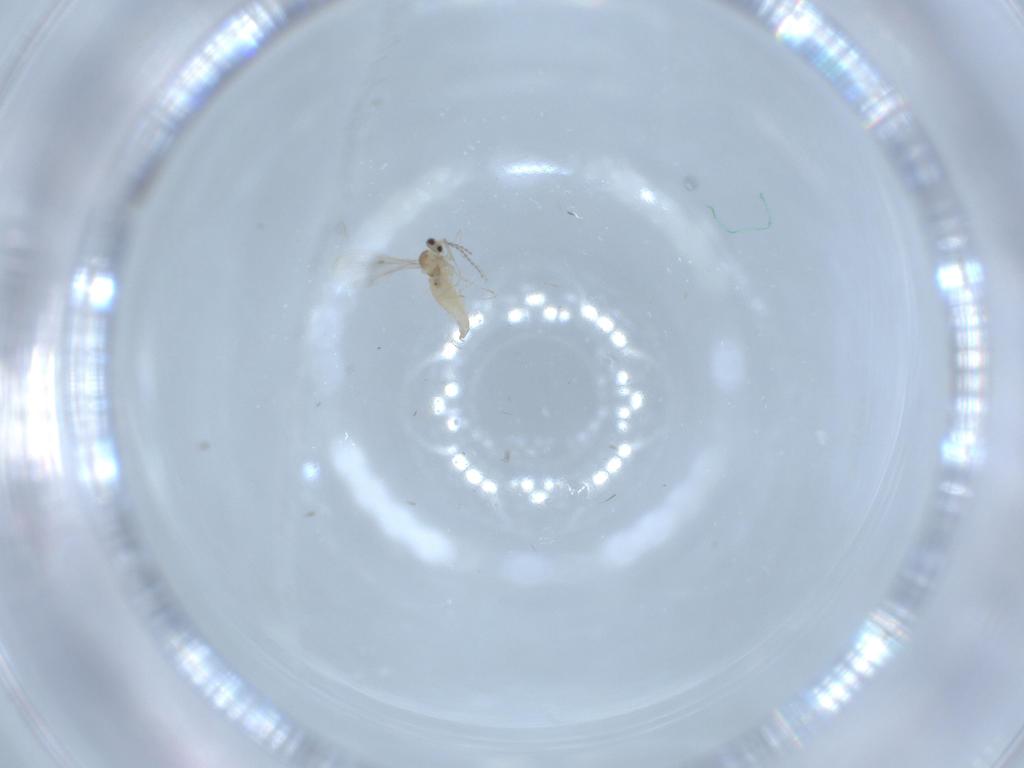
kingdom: Animalia
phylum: Arthropoda
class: Insecta
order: Diptera
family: Cecidomyiidae
